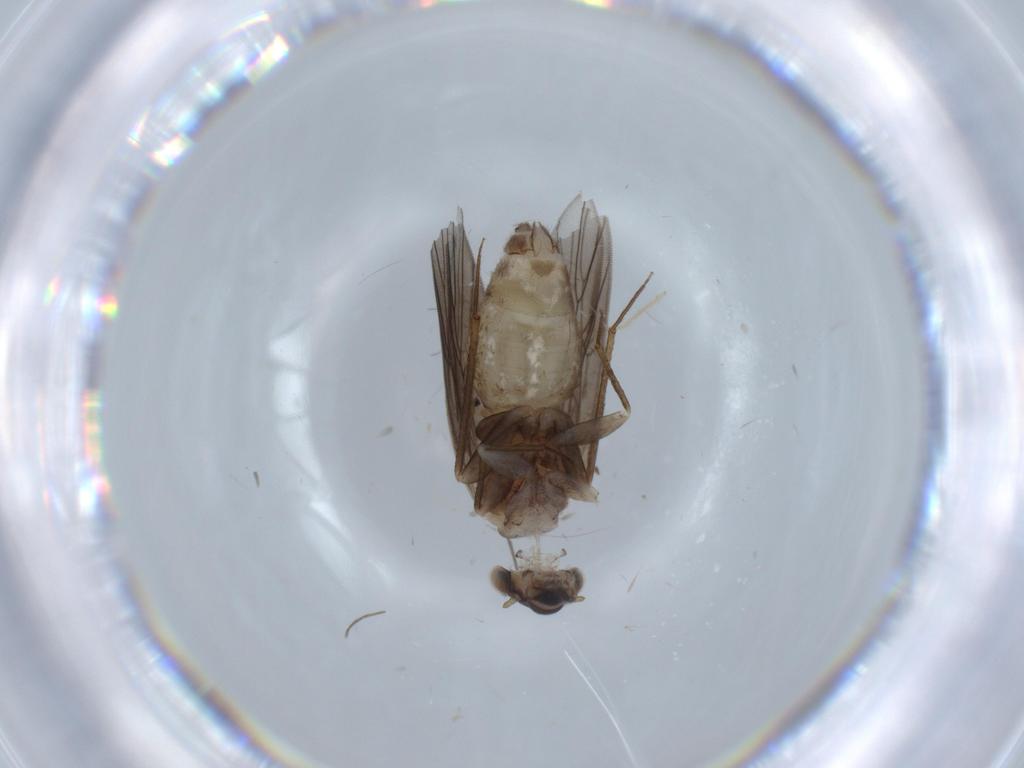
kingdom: Animalia
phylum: Arthropoda
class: Insecta
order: Psocodea
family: Lepidopsocidae
